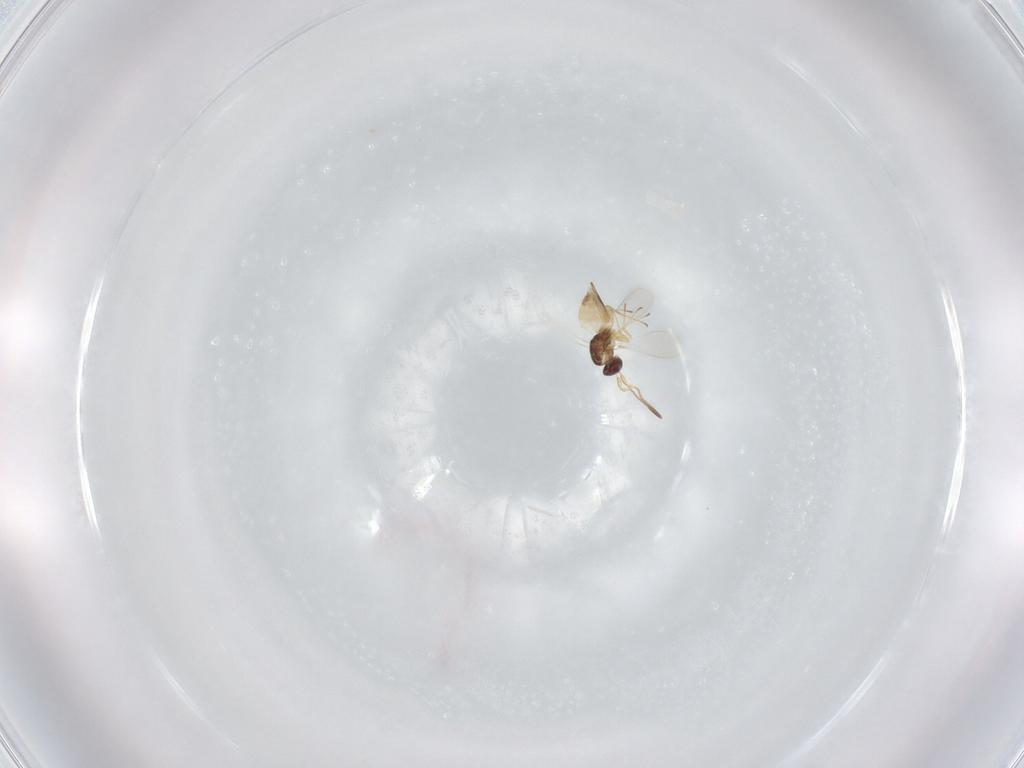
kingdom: Animalia
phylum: Arthropoda
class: Insecta
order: Hymenoptera
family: Mymaridae
